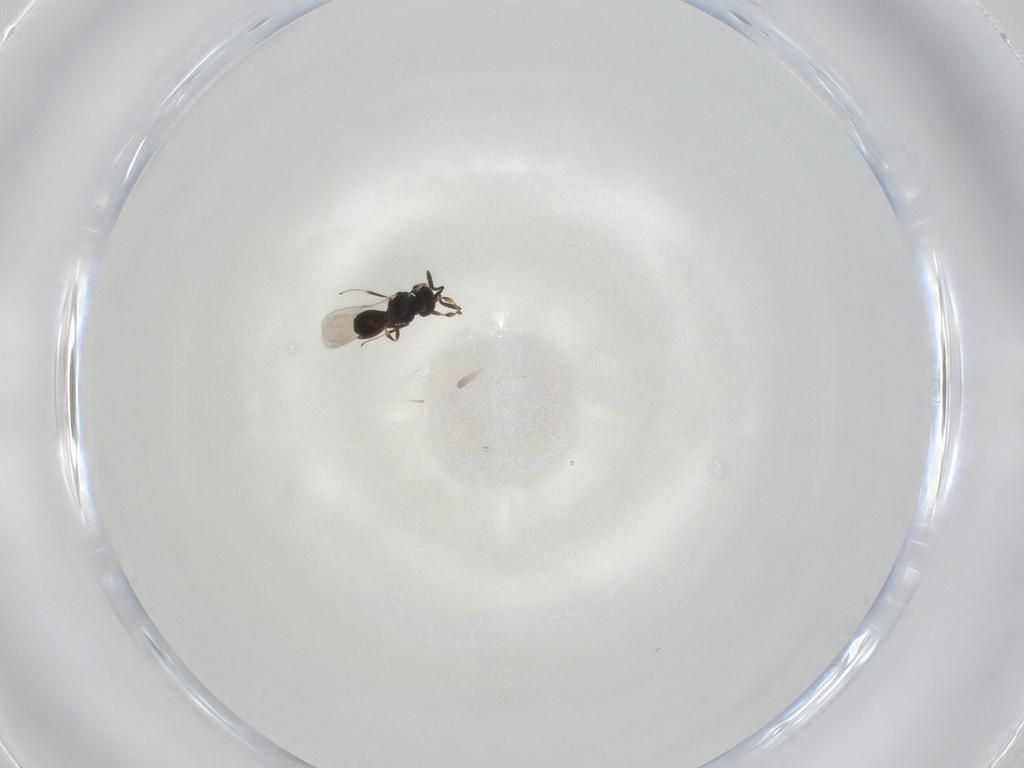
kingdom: Animalia
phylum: Arthropoda
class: Insecta
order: Hymenoptera
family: Scelionidae
